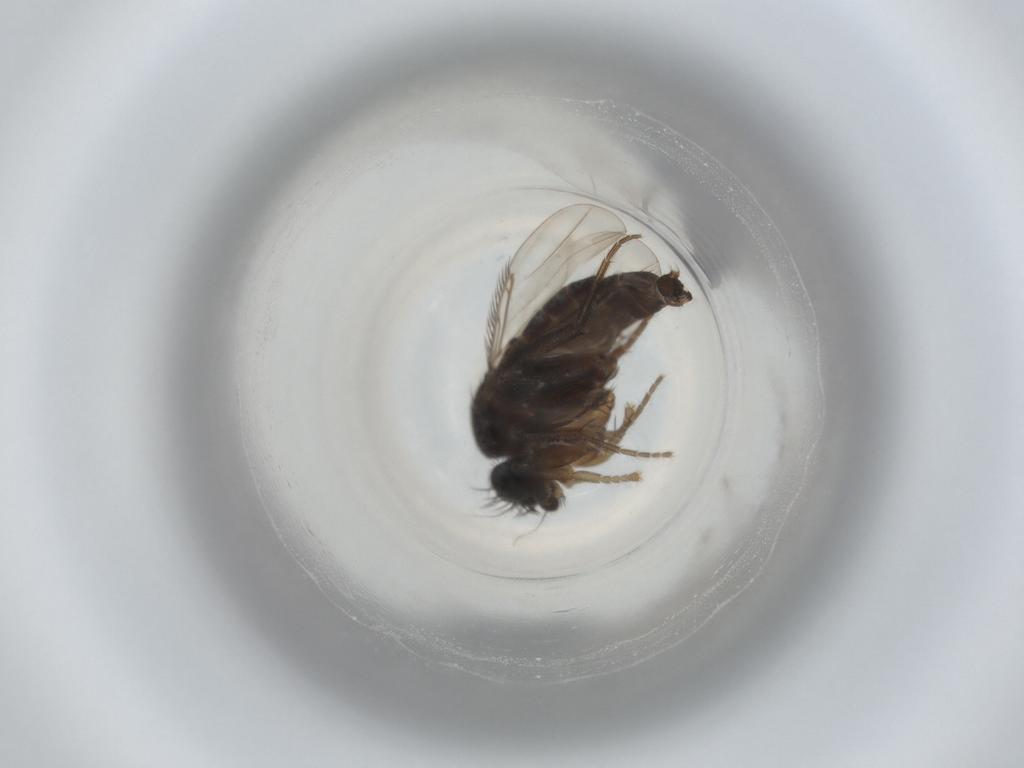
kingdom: Animalia
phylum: Arthropoda
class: Insecta
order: Diptera
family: Phoridae
